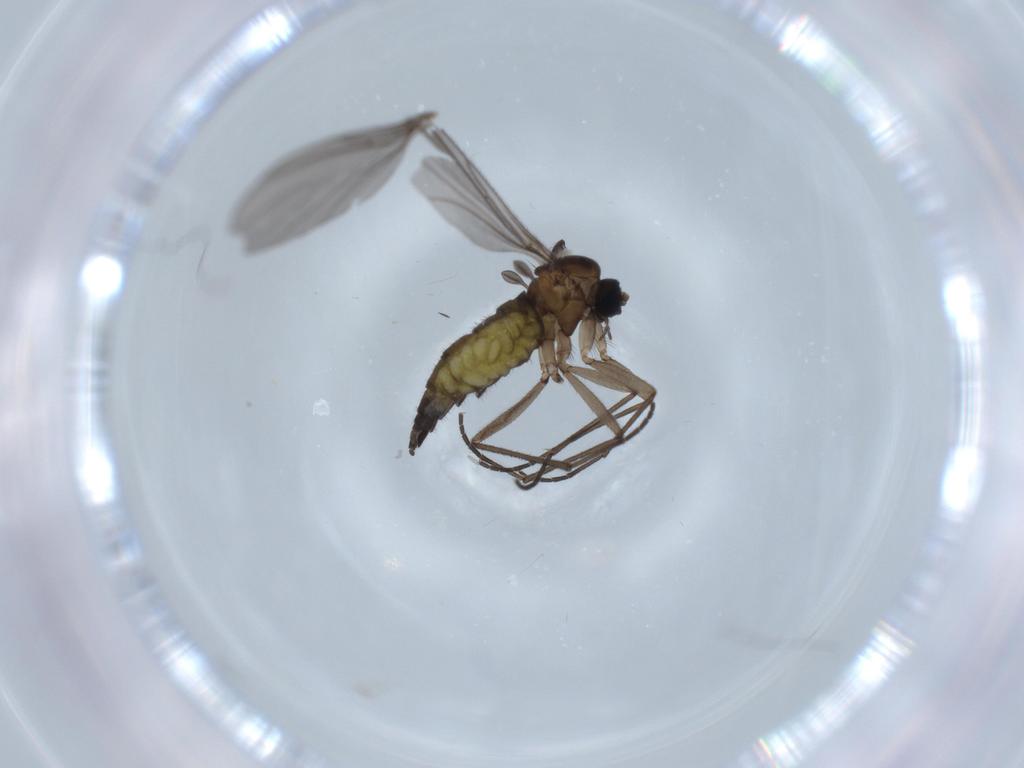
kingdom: Animalia
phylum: Arthropoda
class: Insecta
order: Diptera
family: Sciaridae
